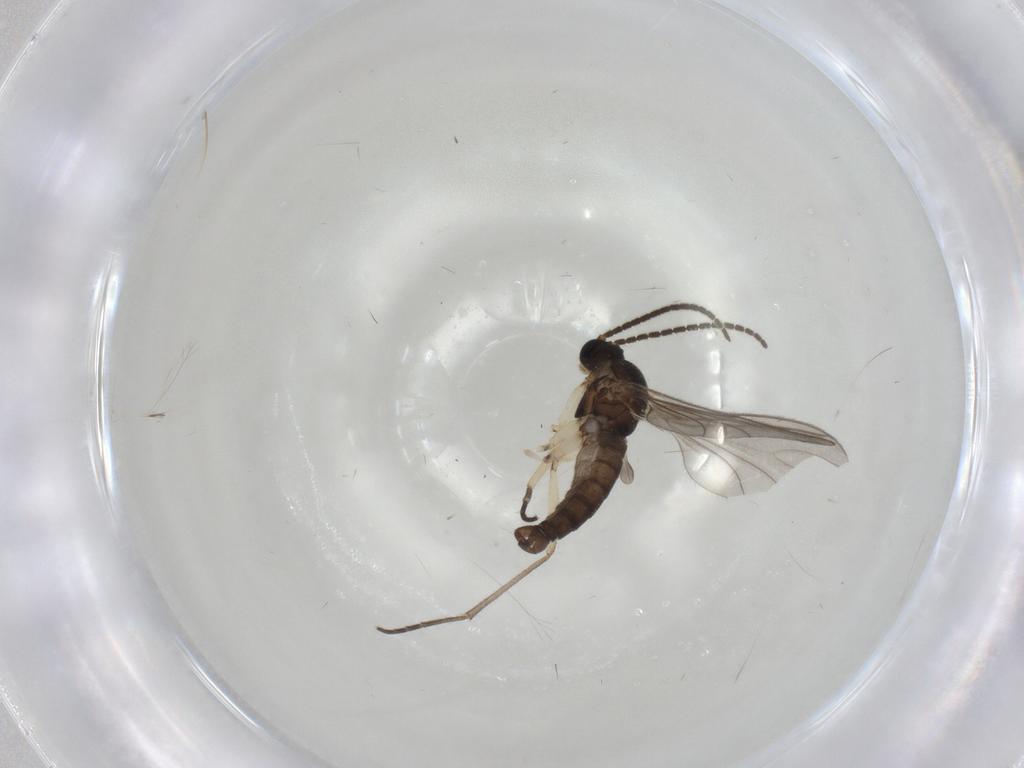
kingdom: Animalia
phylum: Arthropoda
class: Insecta
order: Diptera
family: Sciaridae
